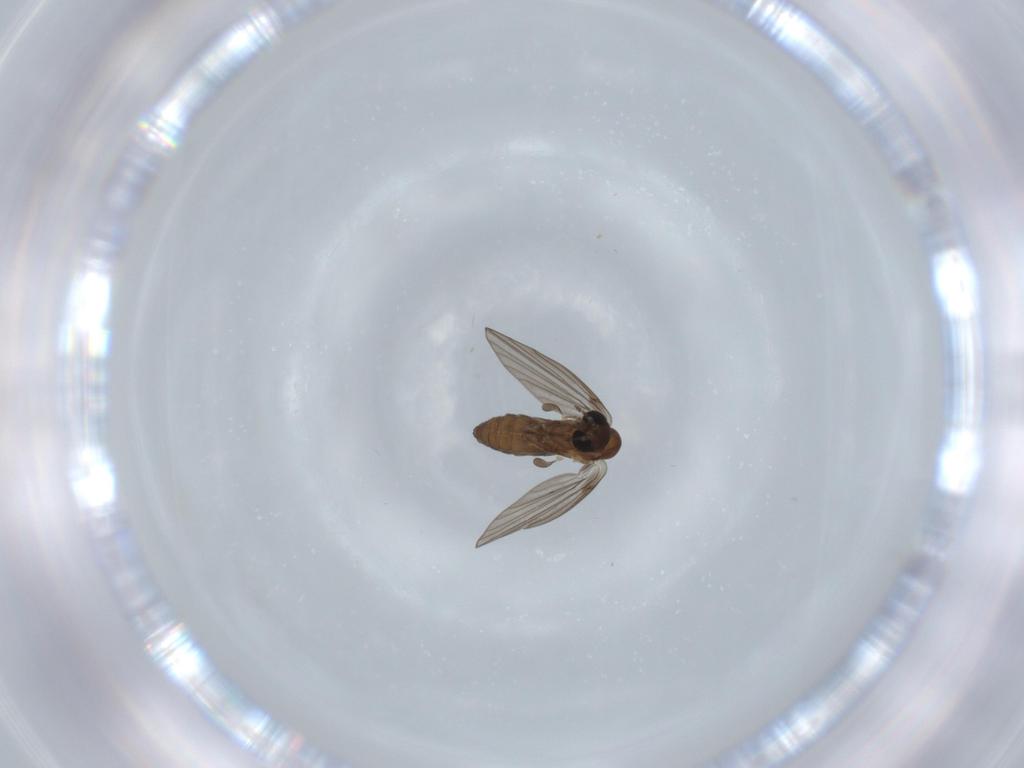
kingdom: Animalia
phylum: Arthropoda
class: Insecta
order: Diptera
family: Psychodidae
